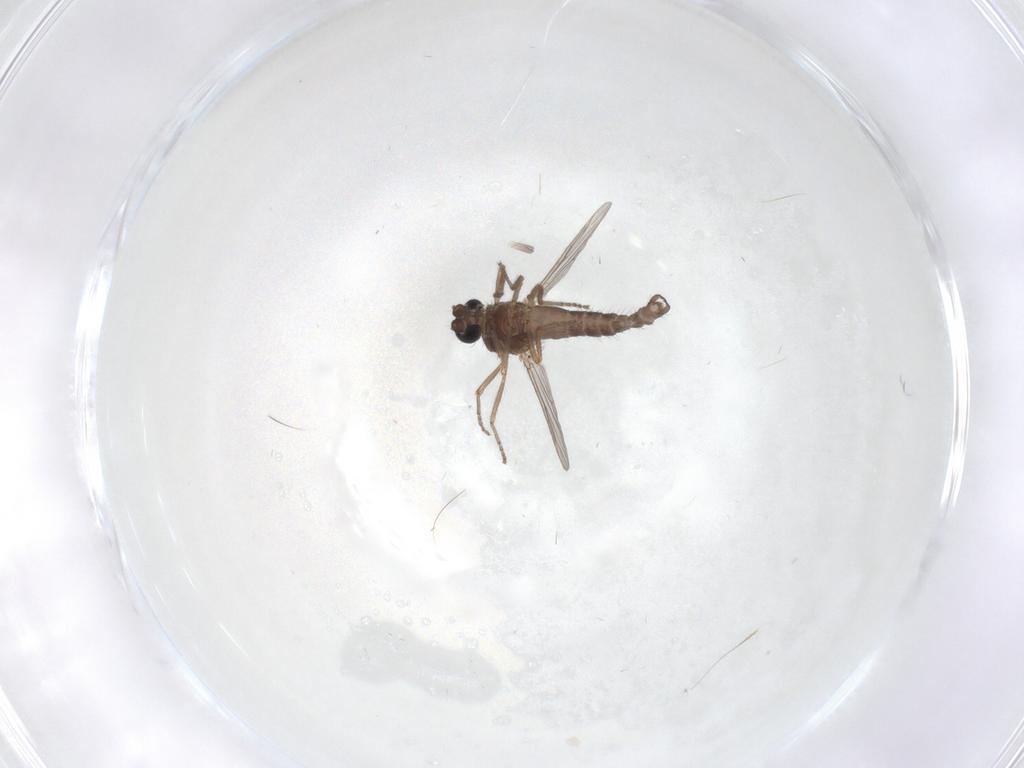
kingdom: Animalia
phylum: Arthropoda
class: Insecta
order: Diptera
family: Ceratopogonidae
